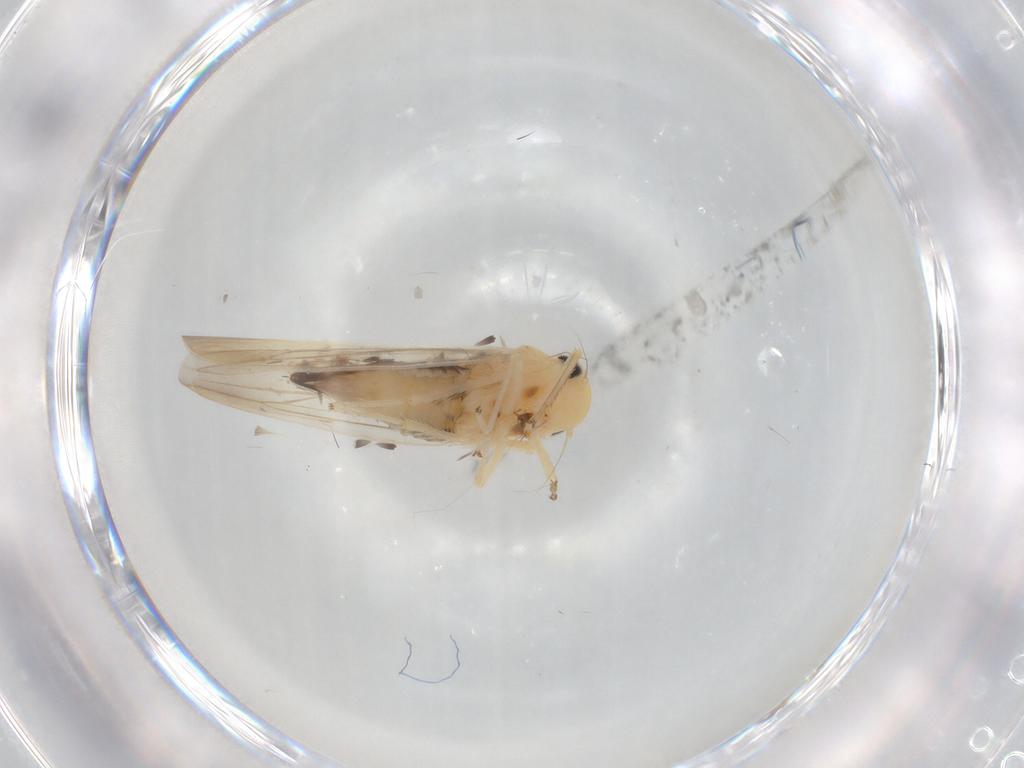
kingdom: Animalia
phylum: Arthropoda
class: Insecta
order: Hemiptera
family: Cicadellidae
